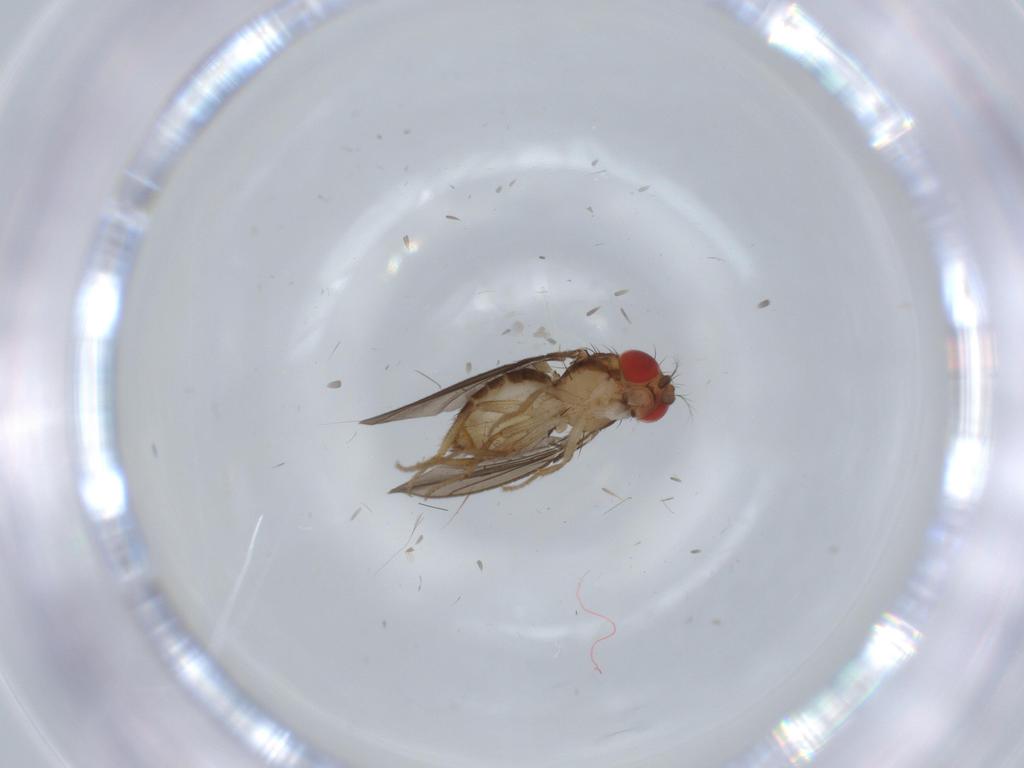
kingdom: Animalia
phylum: Arthropoda
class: Insecta
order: Diptera
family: Drosophilidae
